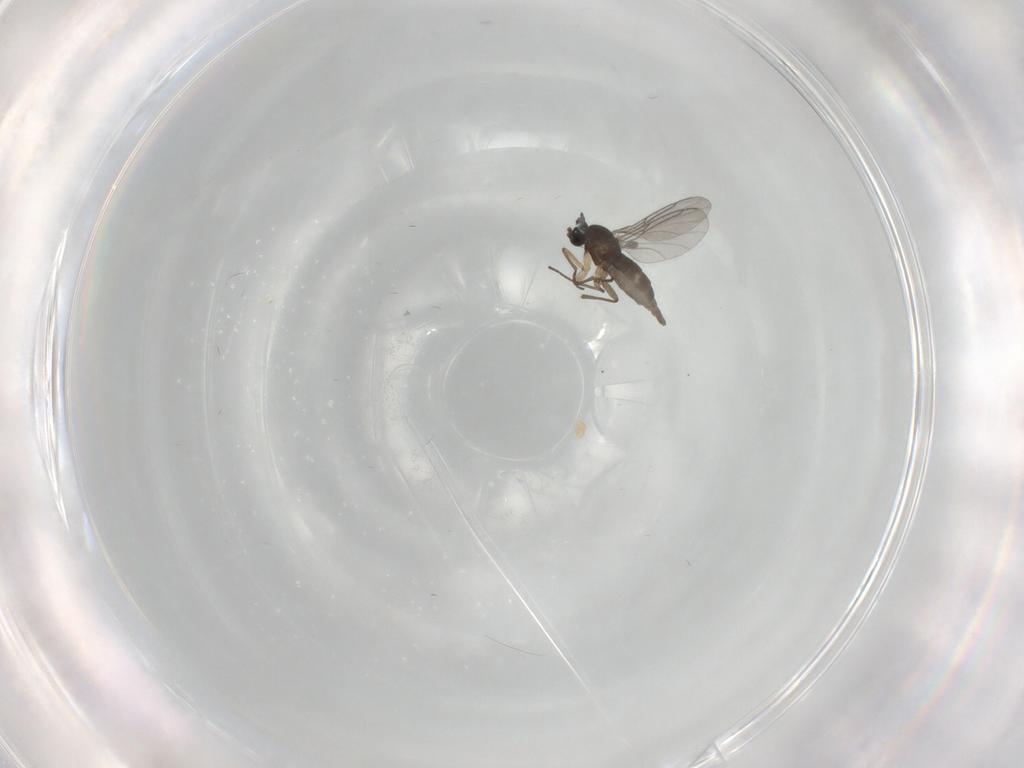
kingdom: Animalia
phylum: Arthropoda
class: Insecta
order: Diptera
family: Sciaridae
